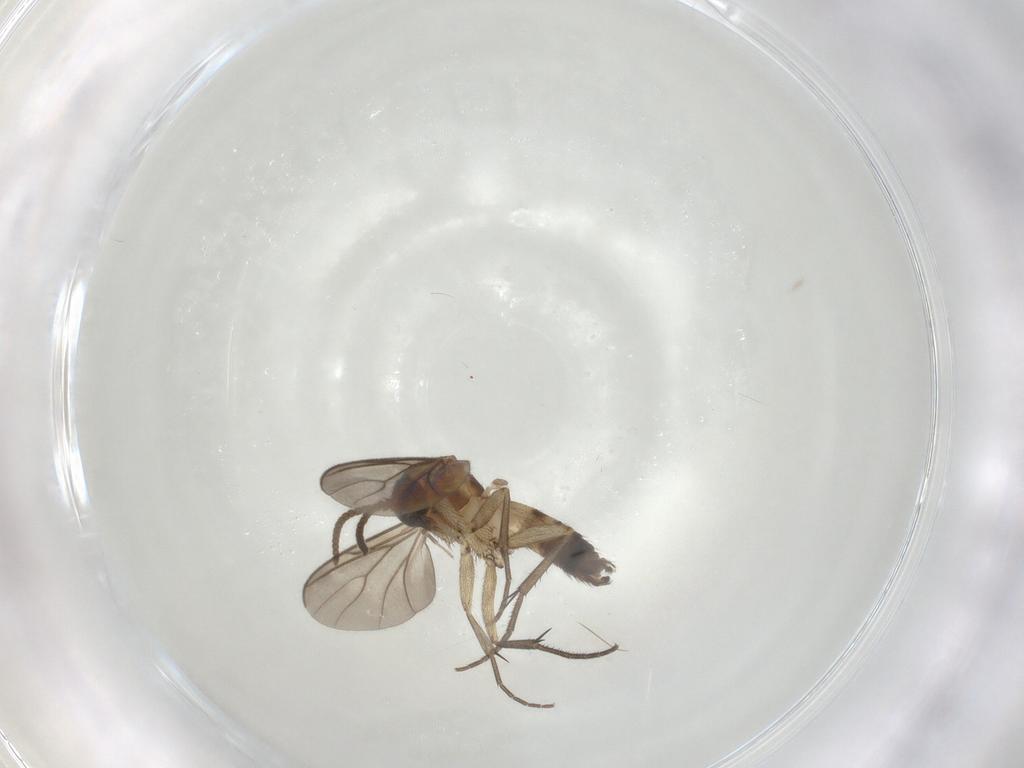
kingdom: Animalia
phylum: Arthropoda
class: Insecta
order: Diptera
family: Mycetophilidae
